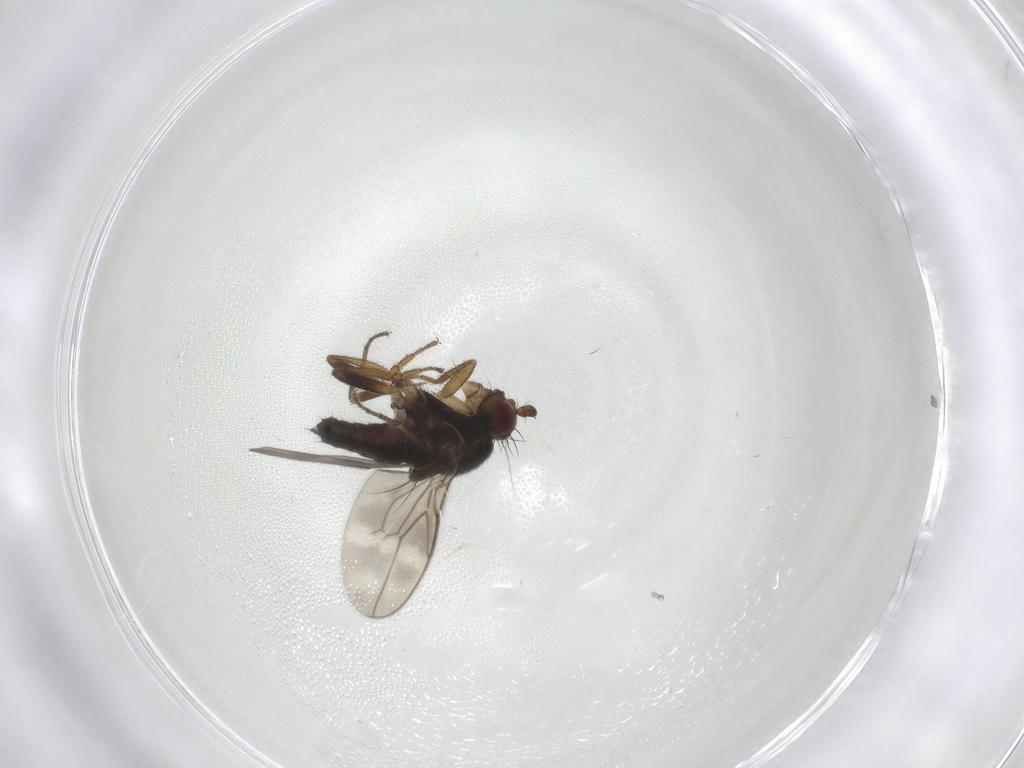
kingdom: Animalia
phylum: Arthropoda
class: Insecta
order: Diptera
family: Sphaeroceridae
